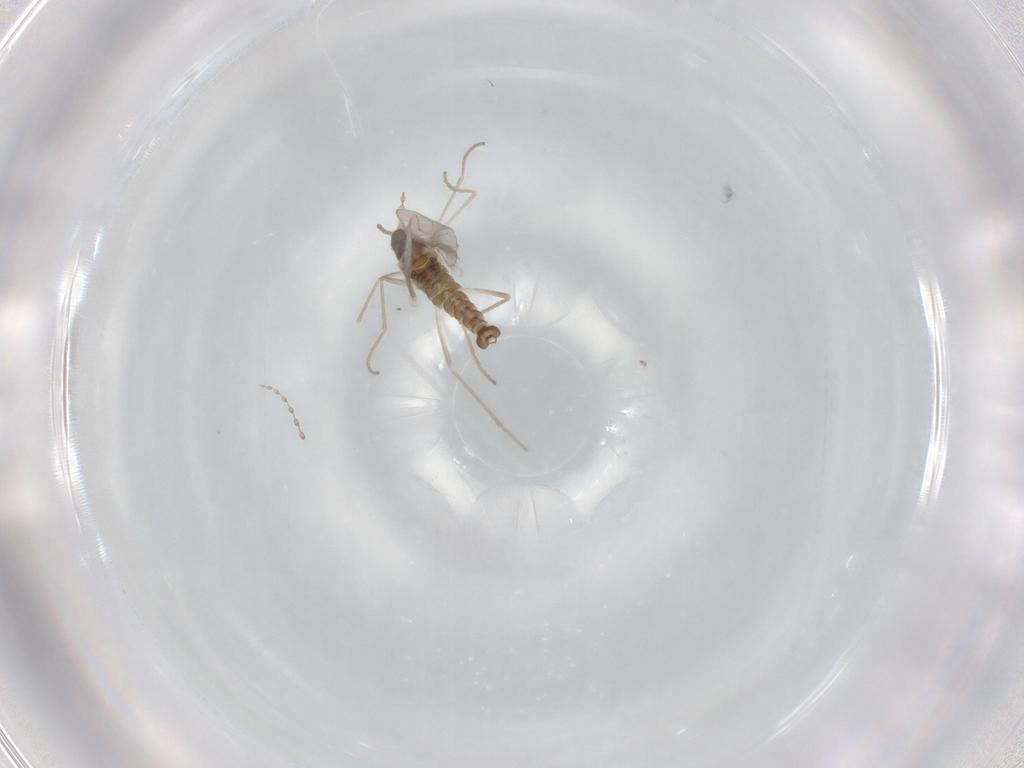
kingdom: Animalia
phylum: Arthropoda
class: Insecta
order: Diptera
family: Cecidomyiidae
